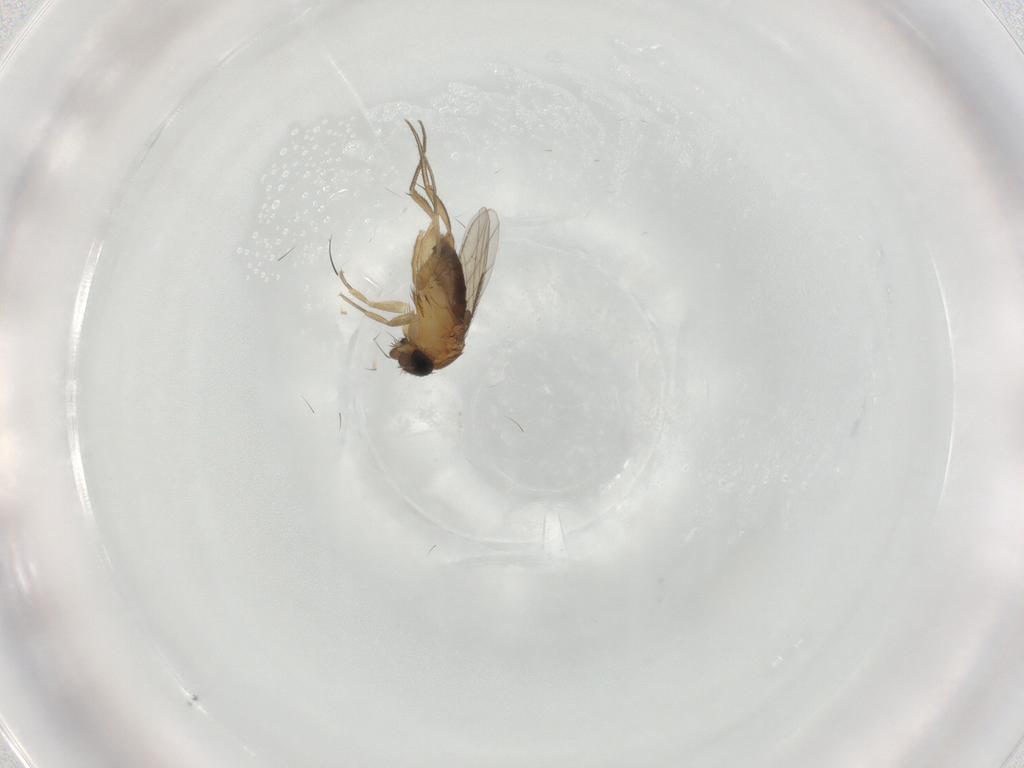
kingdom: Animalia
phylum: Arthropoda
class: Insecta
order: Diptera
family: Phoridae
